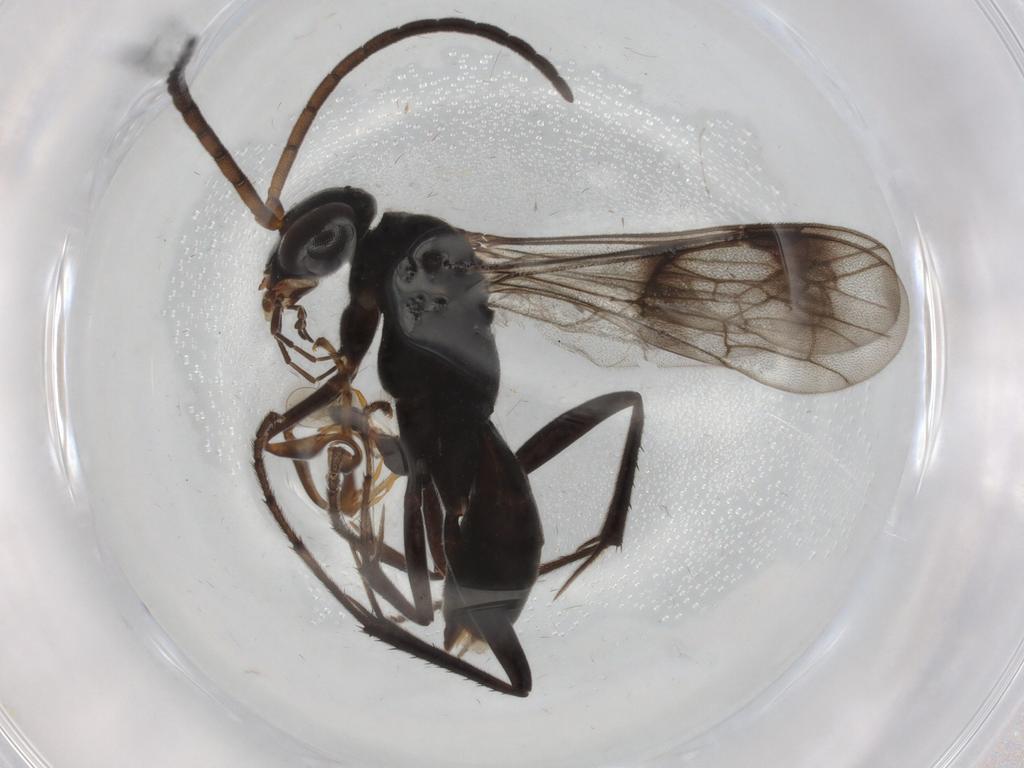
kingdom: Animalia
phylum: Arthropoda
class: Insecta
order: Hymenoptera
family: Pompilidae
